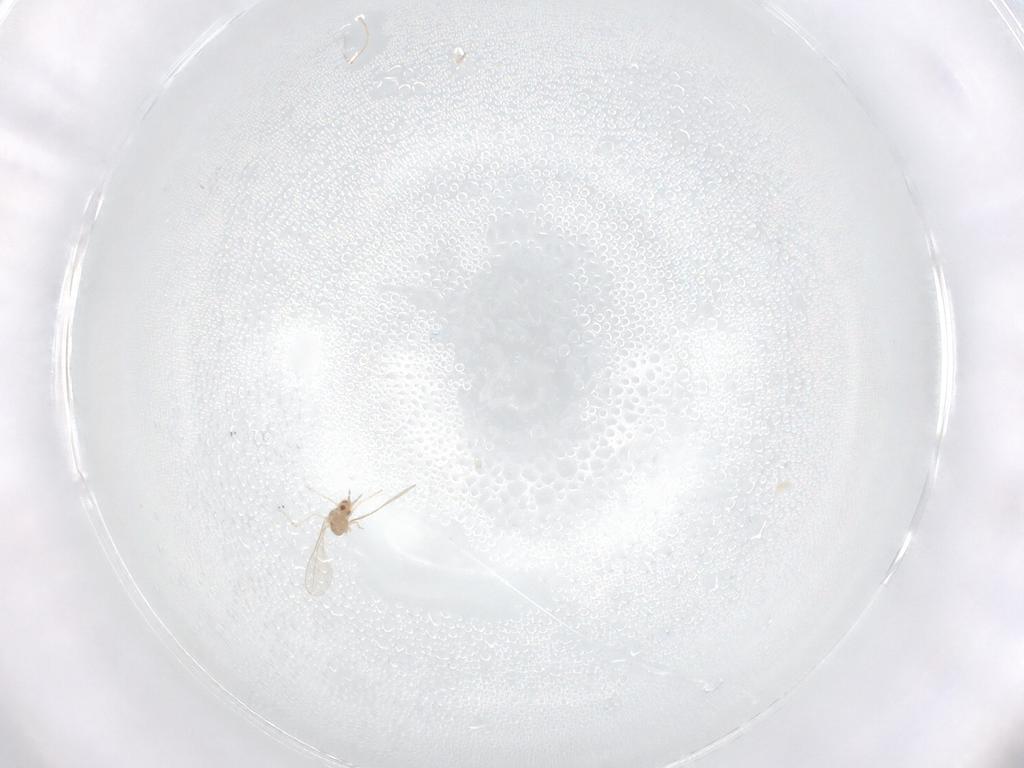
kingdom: Animalia
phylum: Arthropoda
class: Insecta
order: Diptera
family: Cecidomyiidae
